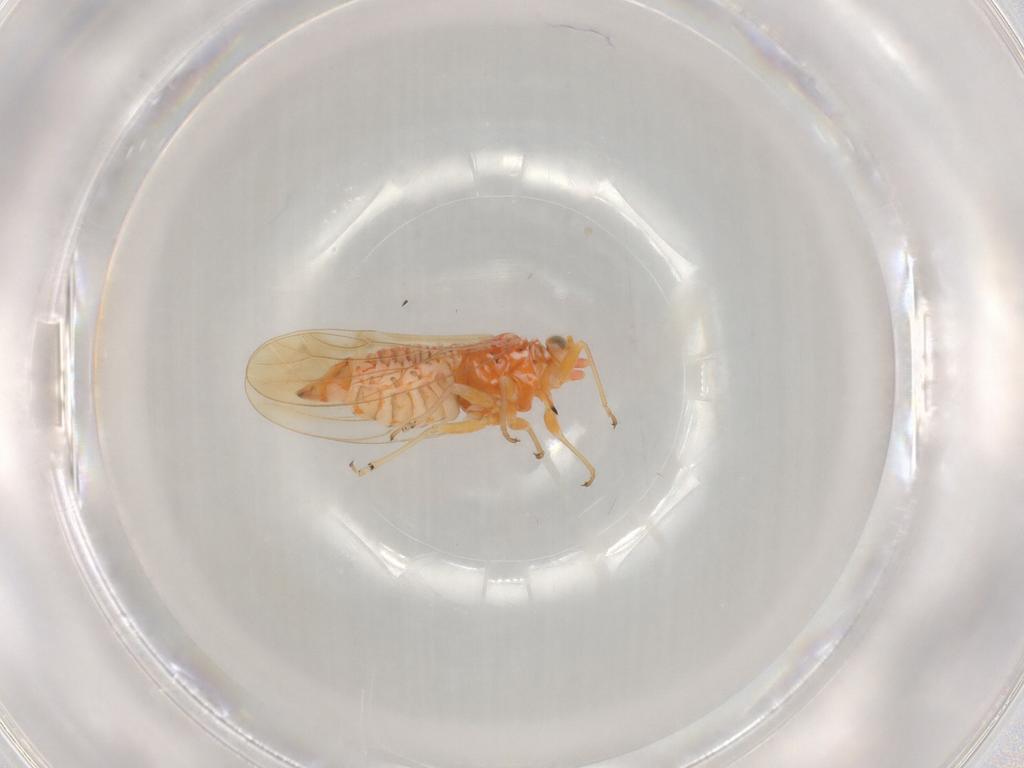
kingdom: Animalia
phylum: Arthropoda
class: Insecta
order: Hemiptera
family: Psyllidae
